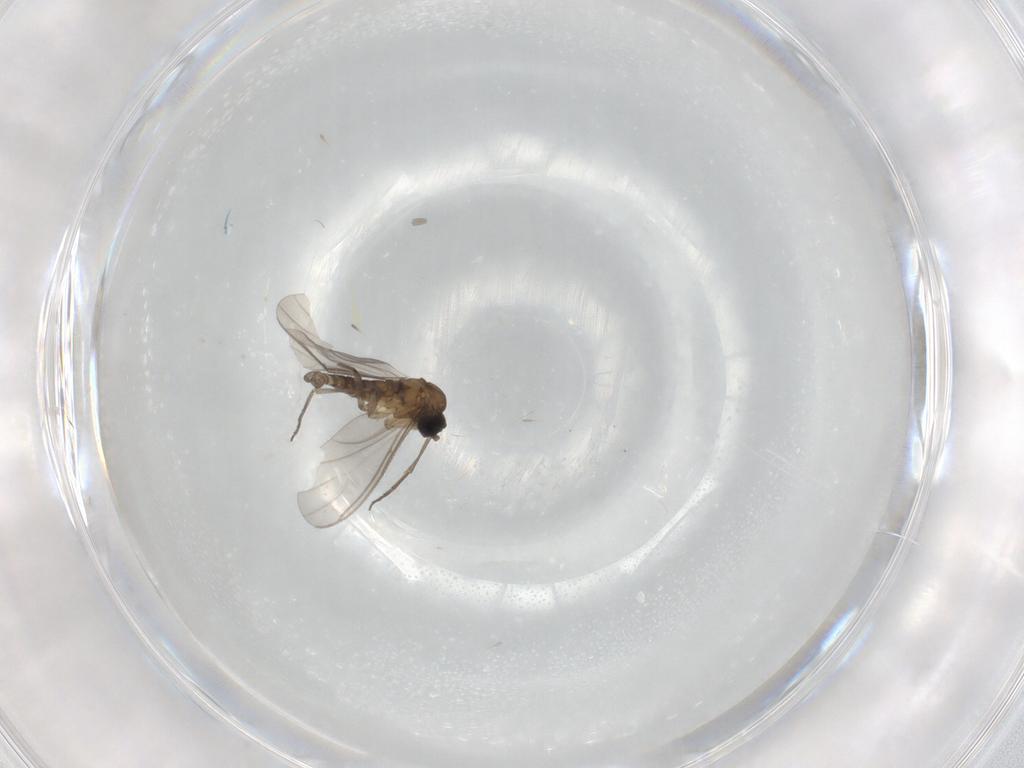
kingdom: Animalia
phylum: Arthropoda
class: Insecta
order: Diptera
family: Sciaridae
